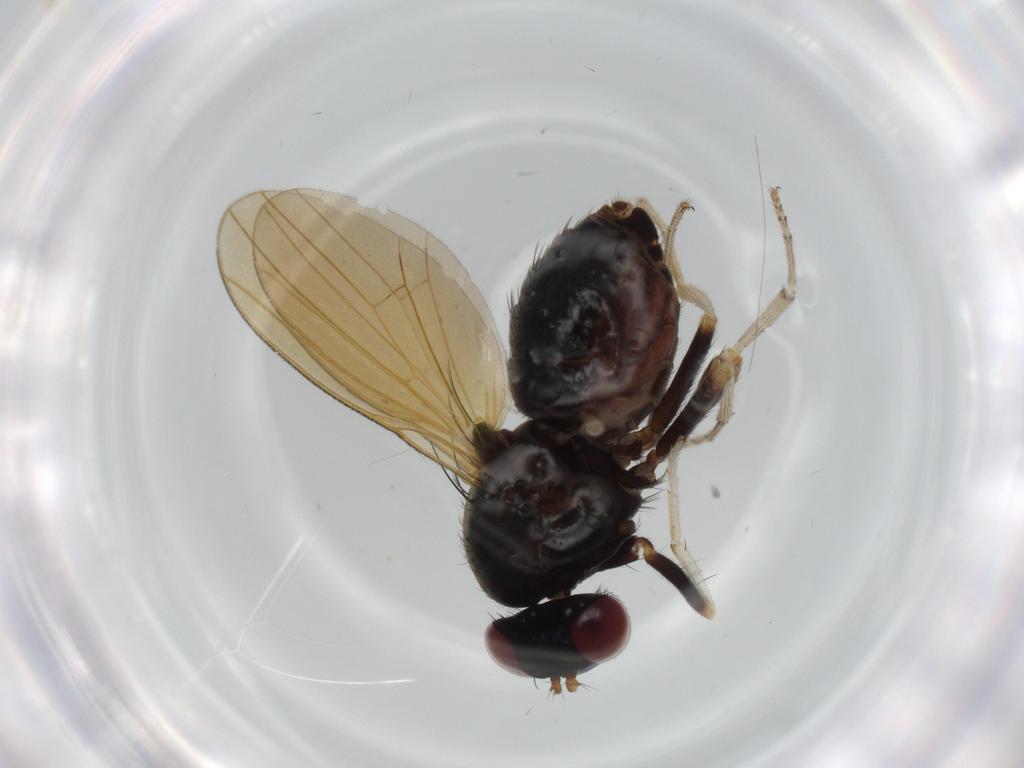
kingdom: Animalia
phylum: Arthropoda
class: Insecta
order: Diptera
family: Milichiidae
